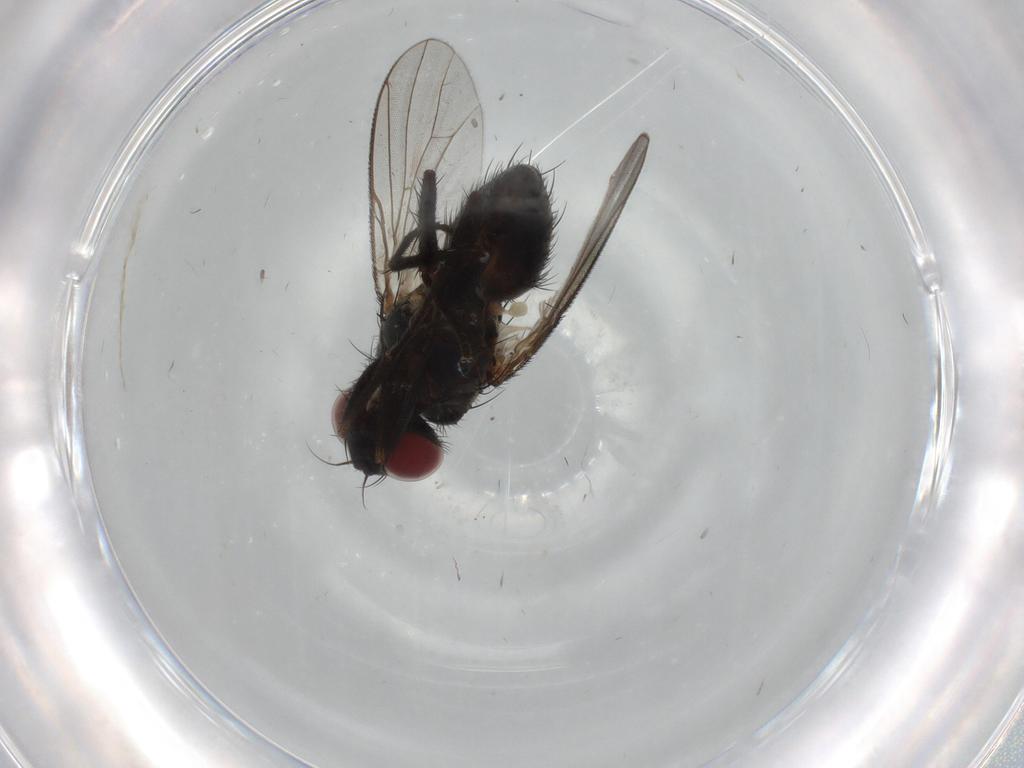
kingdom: Animalia
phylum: Arthropoda
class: Insecta
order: Diptera
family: Muscidae
